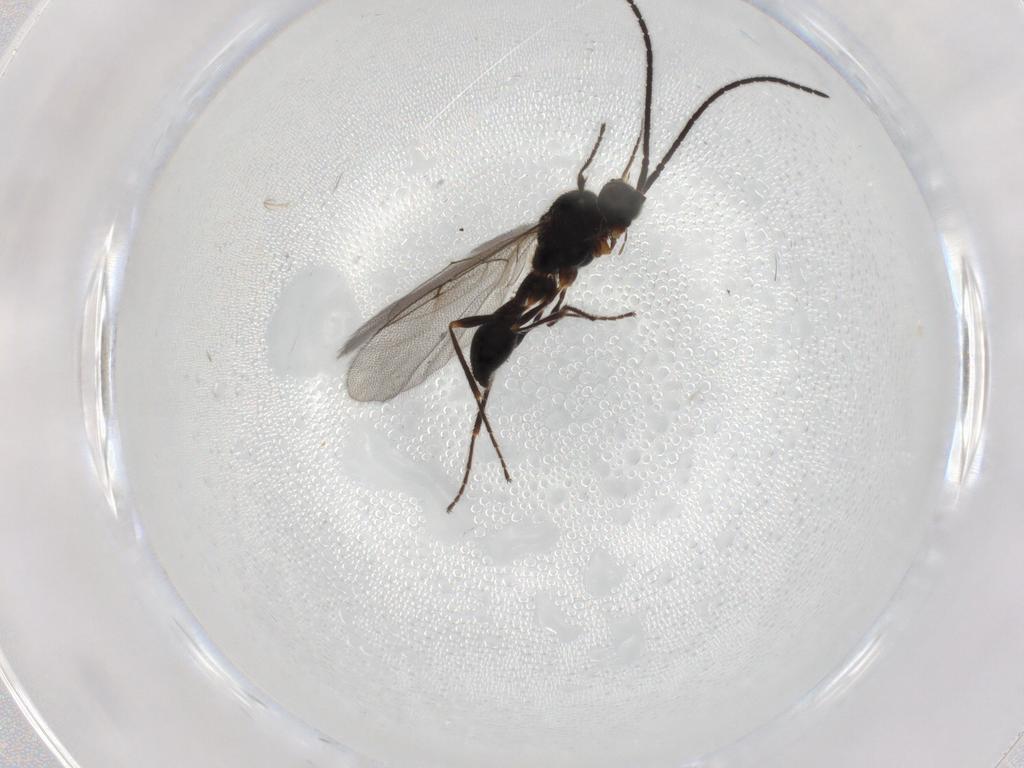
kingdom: Animalia
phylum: Arthropoda
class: Insecta
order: Hymenoptera
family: Diapriidae
